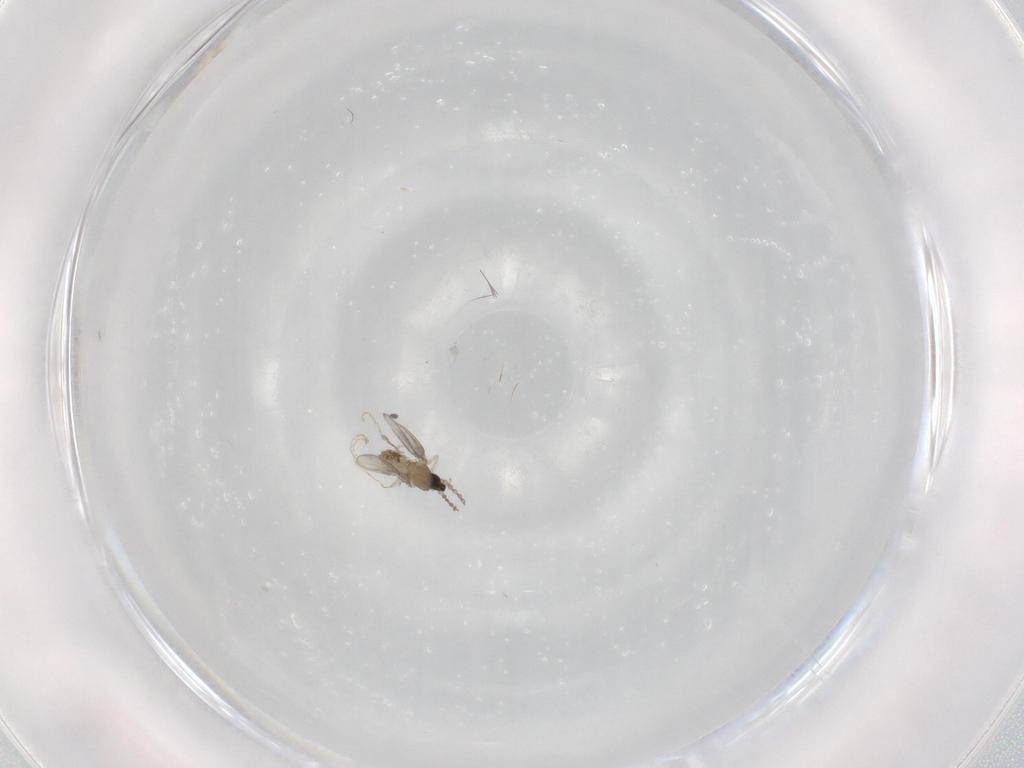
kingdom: Animalia
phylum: Arthropoda
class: Insecta
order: Diptera
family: Cecidomyiidae
